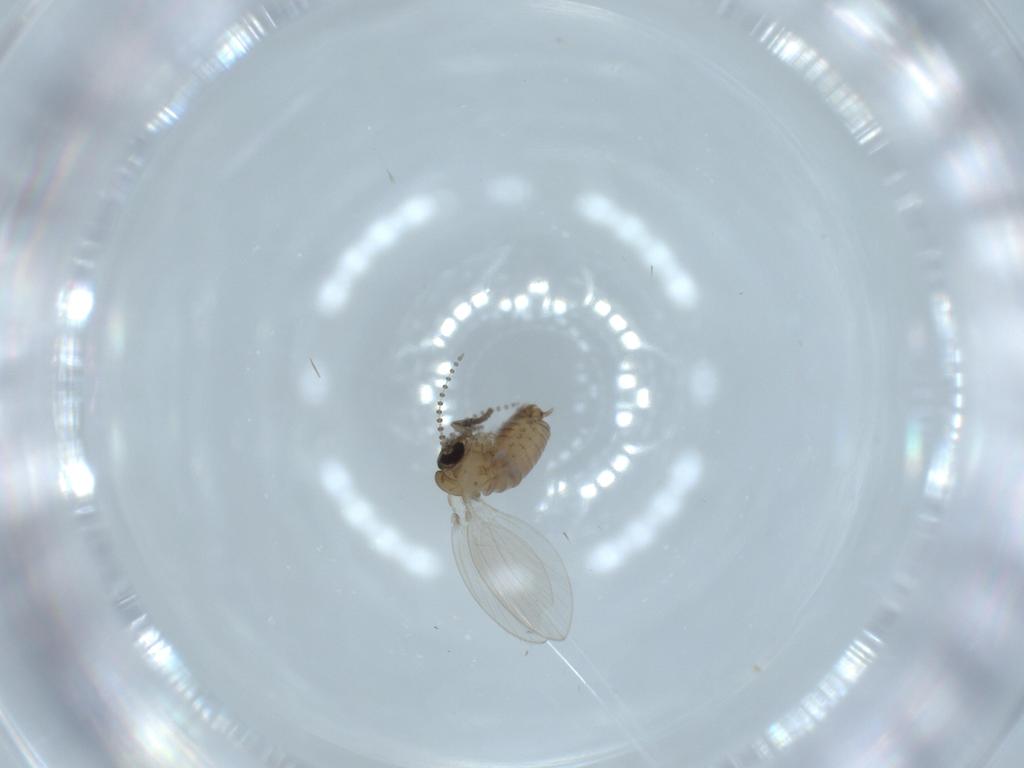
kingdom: Animalia
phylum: Arthropoda
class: Insecta
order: Diptera
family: Psychodidae
